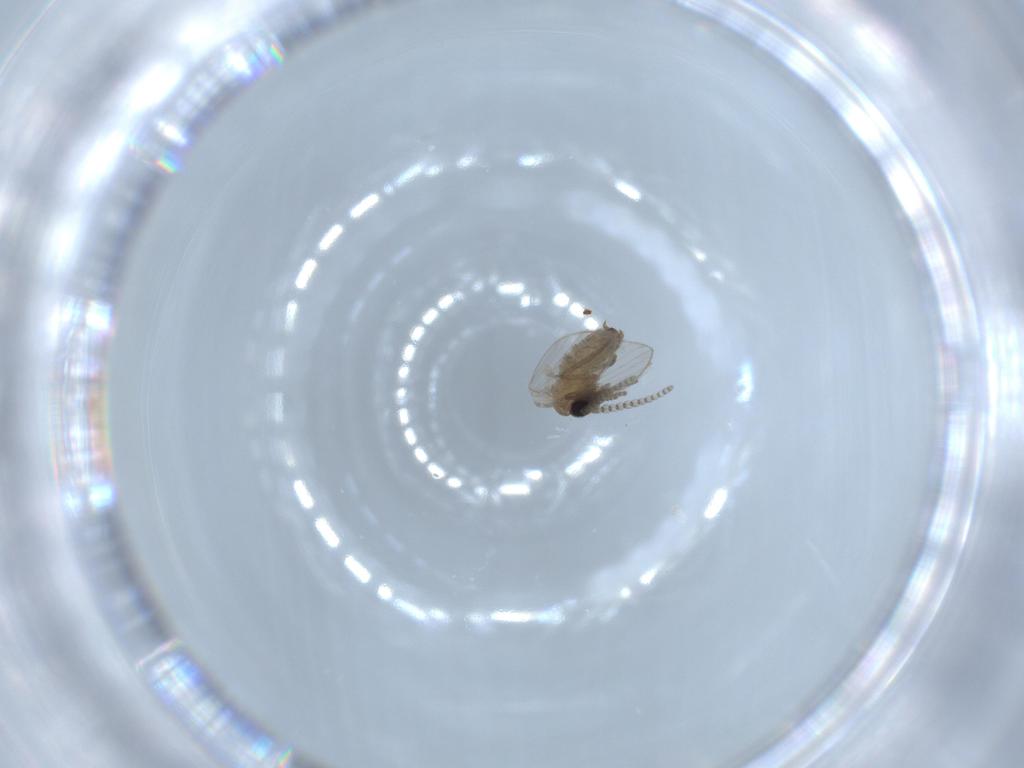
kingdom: Animalia
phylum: Arthropoda
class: Insecta
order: Diptera
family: Psychodidae
